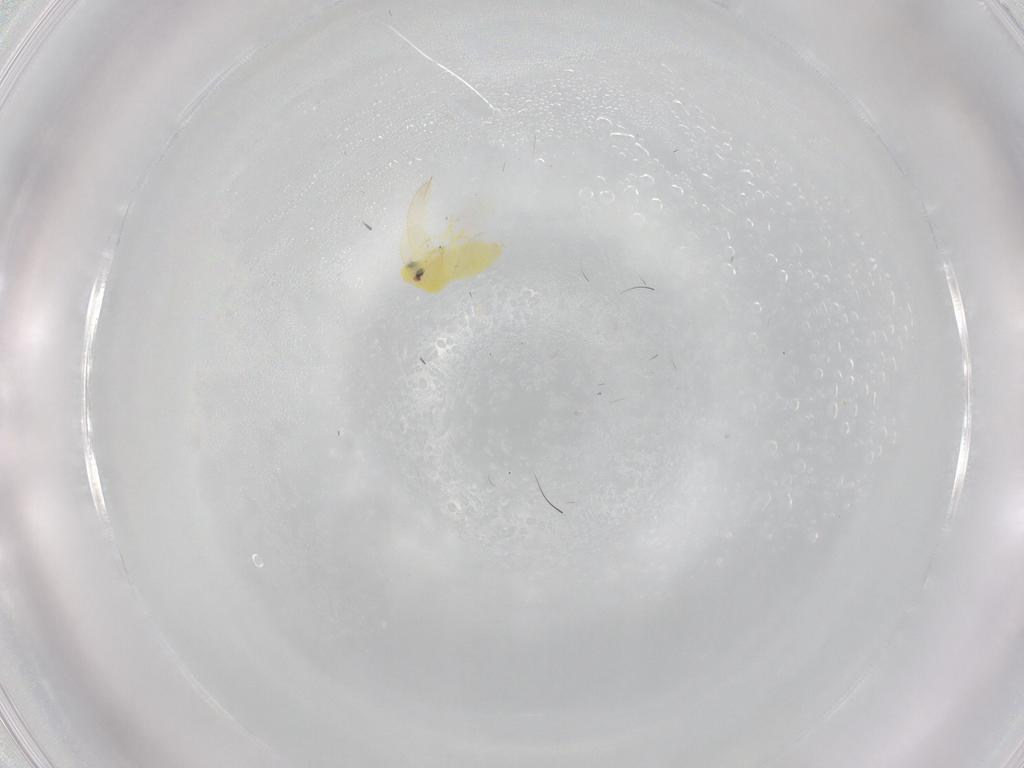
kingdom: Animalia
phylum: Arthropoda
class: Insecta
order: Hemiptera
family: Aleyrodidae
